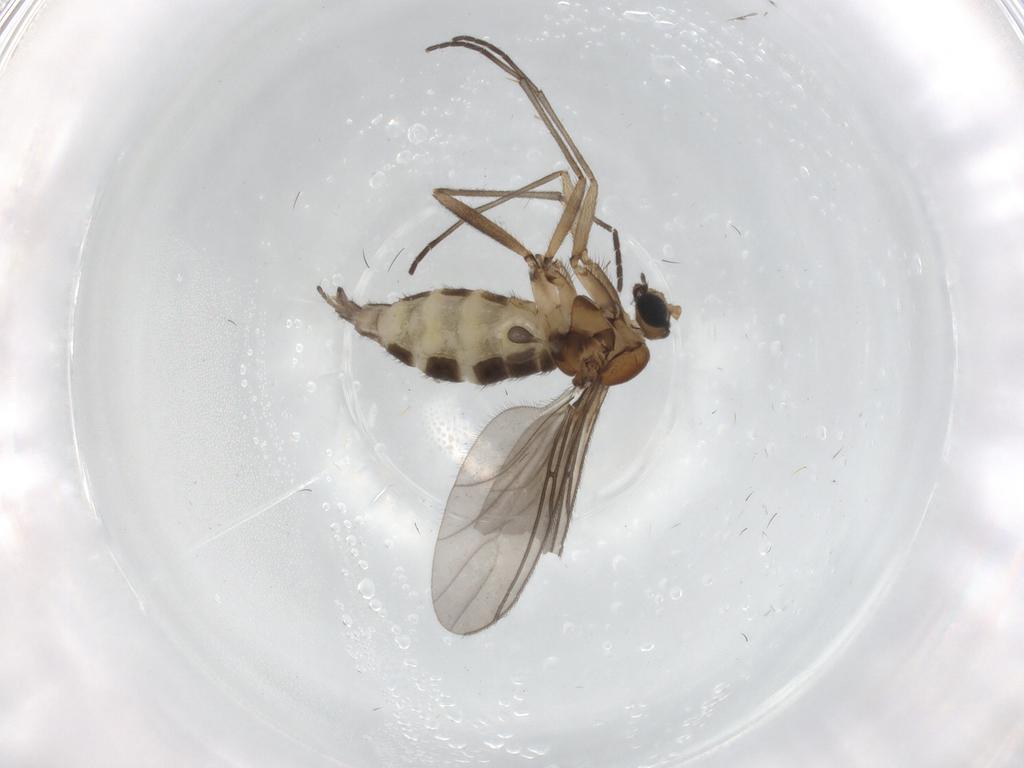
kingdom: Animalia
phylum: Arthropoda
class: Insecta
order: Diptera
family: Sciaridae
